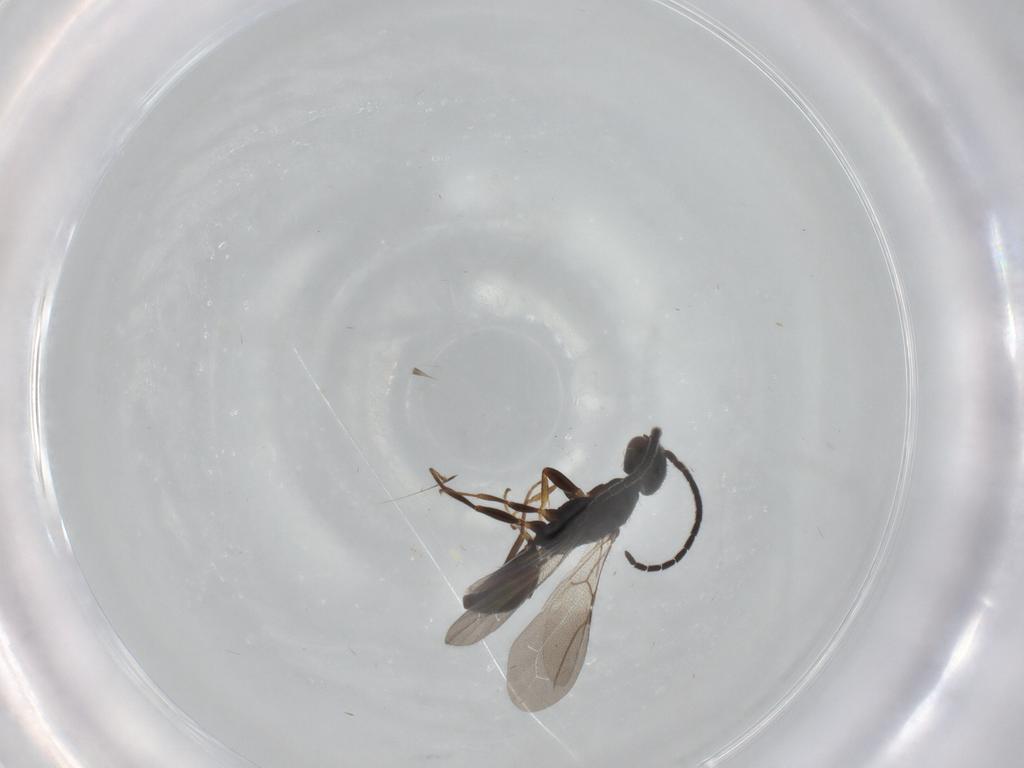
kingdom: Animalia
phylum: Arthropoda
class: Insecta
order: Hymenoptera
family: Bethylidae
